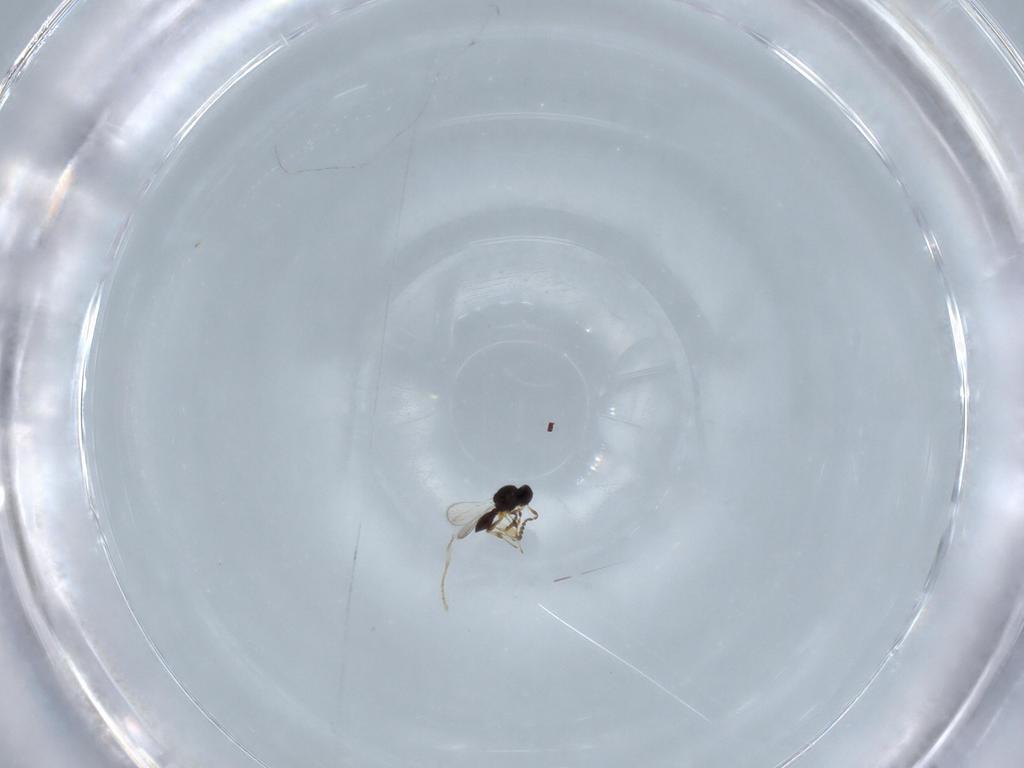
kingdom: Animalia
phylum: Arthropoda
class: Insecta
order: Hymenoptera
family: Platygastridae
